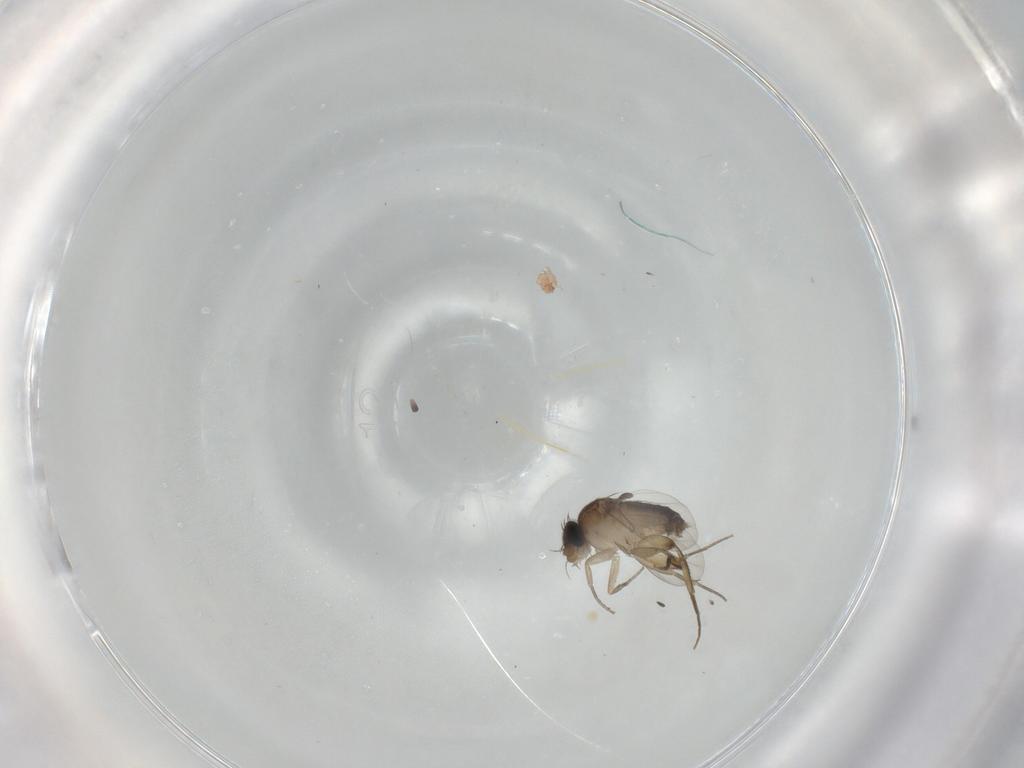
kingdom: Animalia
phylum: Arthropoda
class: Insecta
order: Diptera
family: Phoridae
